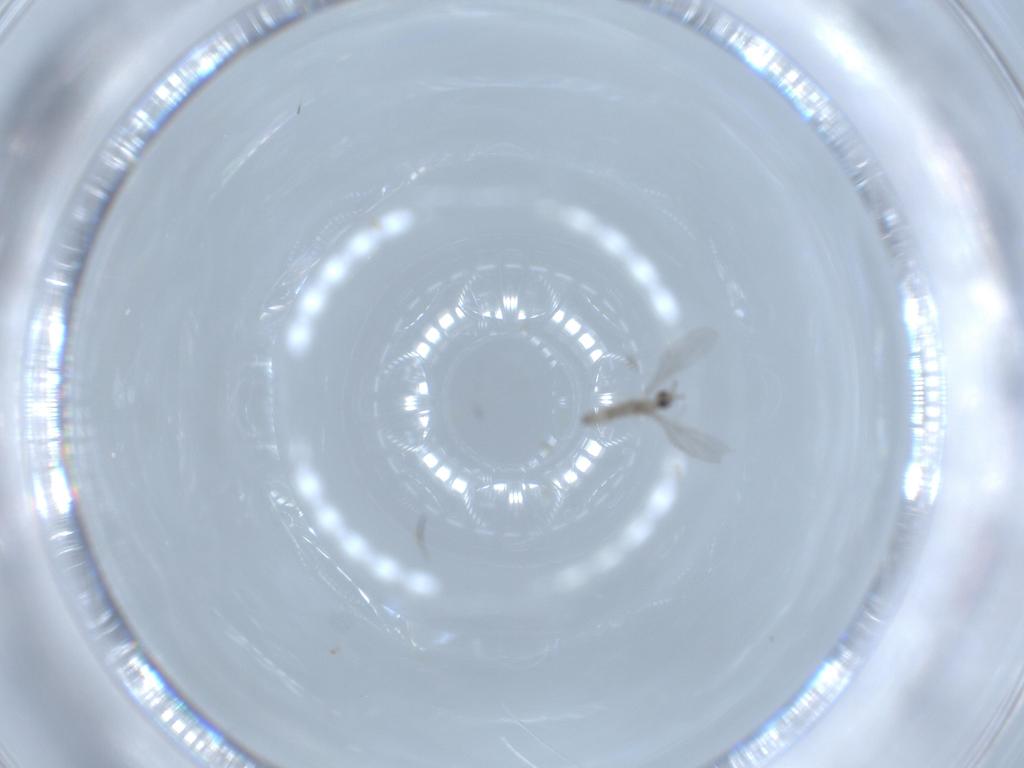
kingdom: Animalia
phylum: Arthropoda
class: Insecta
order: Diptera
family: Cecidomyiidae
